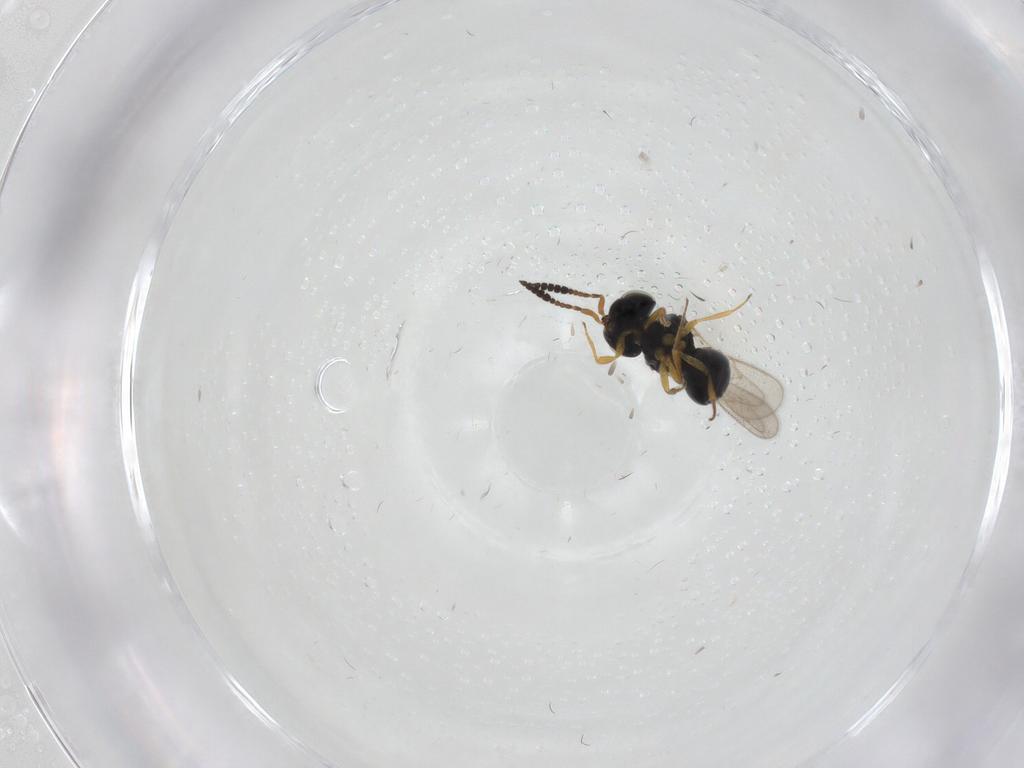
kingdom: Animalia
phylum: Arthropoda
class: Insecta
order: Hymenoptera
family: Scelionidae
